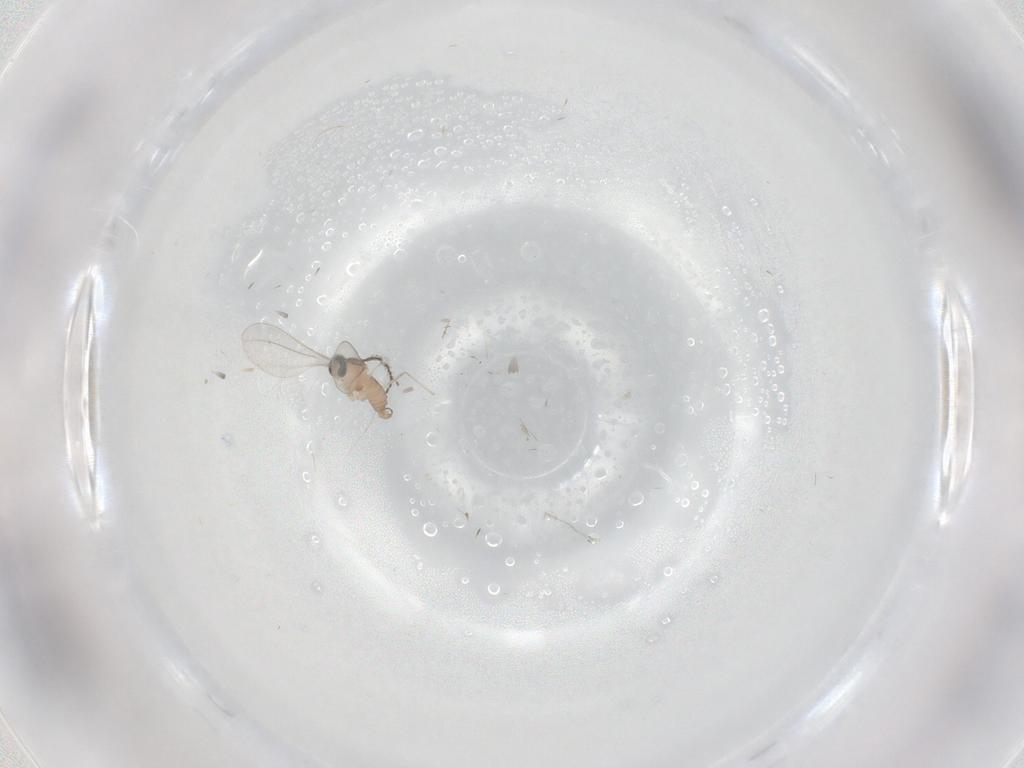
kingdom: Animalia
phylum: Arthropoda
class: Insecta
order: Diptera
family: Cecidomyiidae
